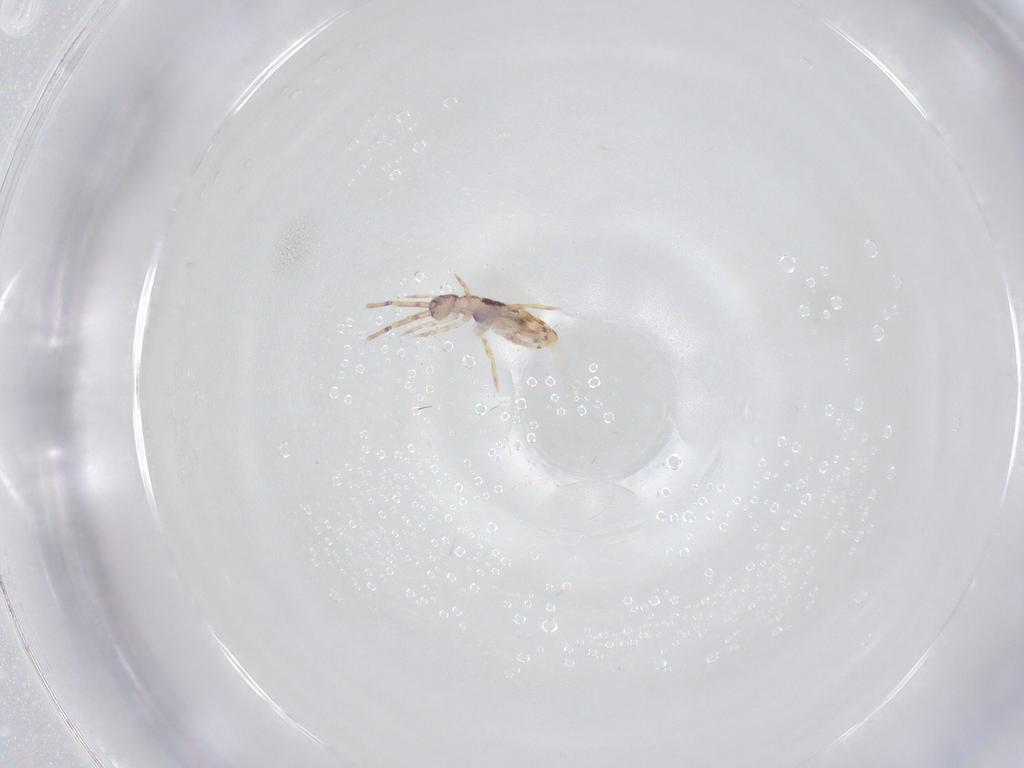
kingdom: Animalia
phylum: Arthropoda
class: Collembola
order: Entomobryomorpha
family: Entomobryidae
